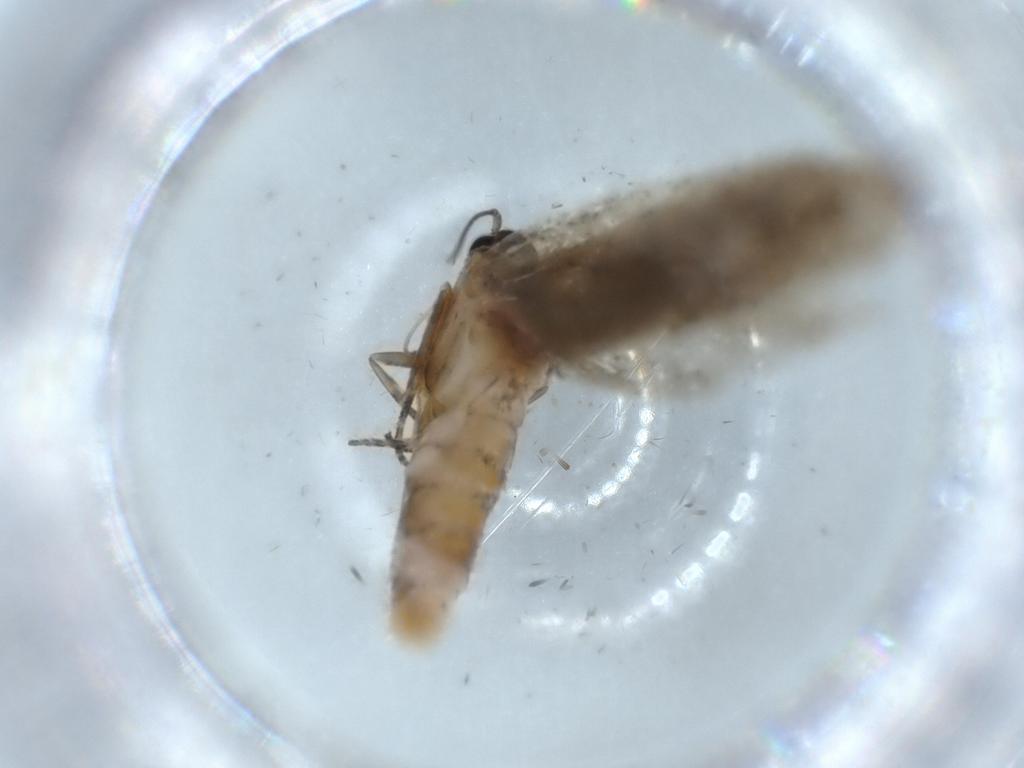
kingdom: Animalia
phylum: Arthropoda
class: Insecta
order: Lepidoptera
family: Oecophoridae
